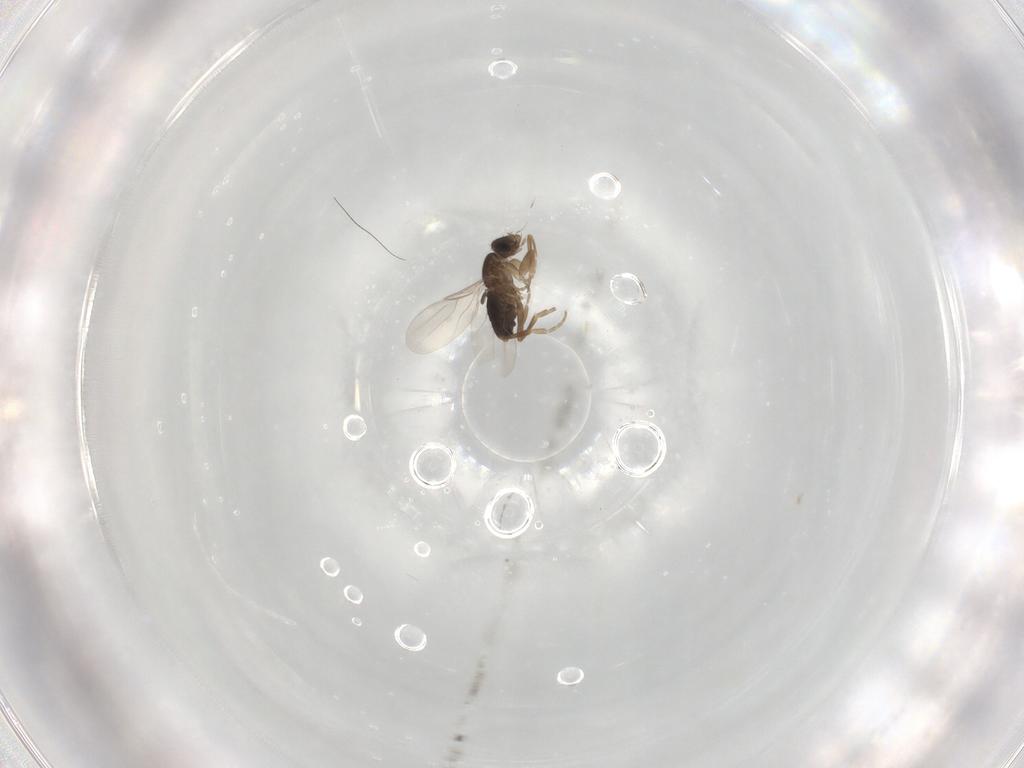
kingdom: Animalia
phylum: Arthropoda
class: Insecta
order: Diptera
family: Phoridae
